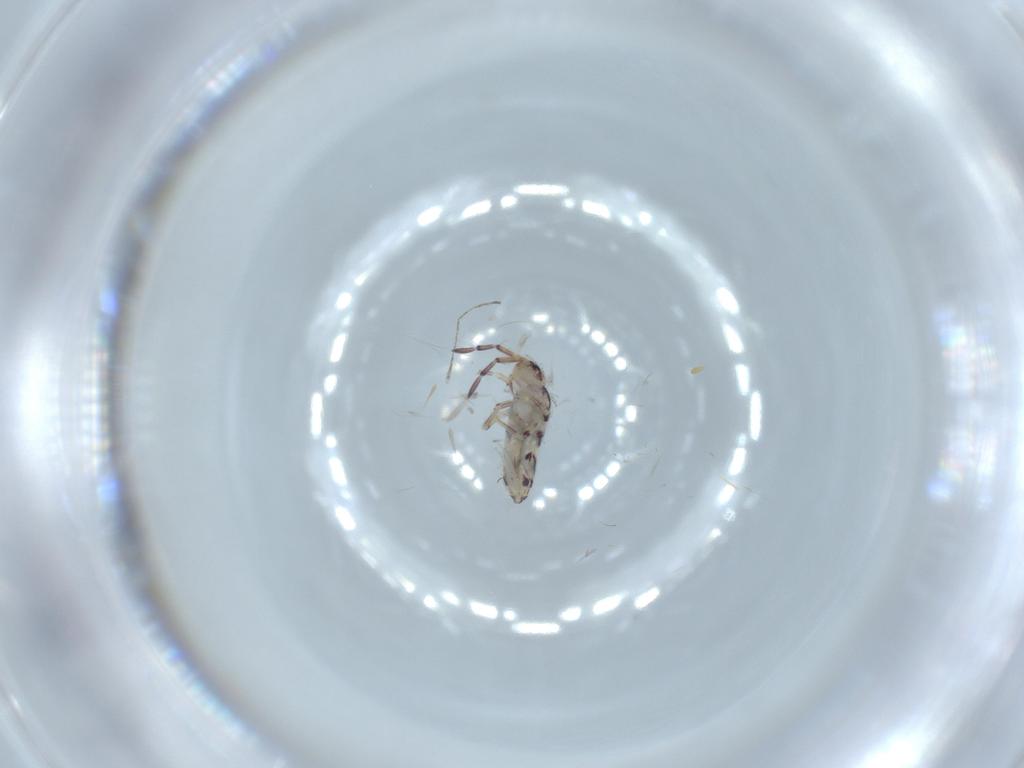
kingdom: Animalia
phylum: Arthropoda
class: Collembola
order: Entomobryomorpha
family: Entomobryidae
